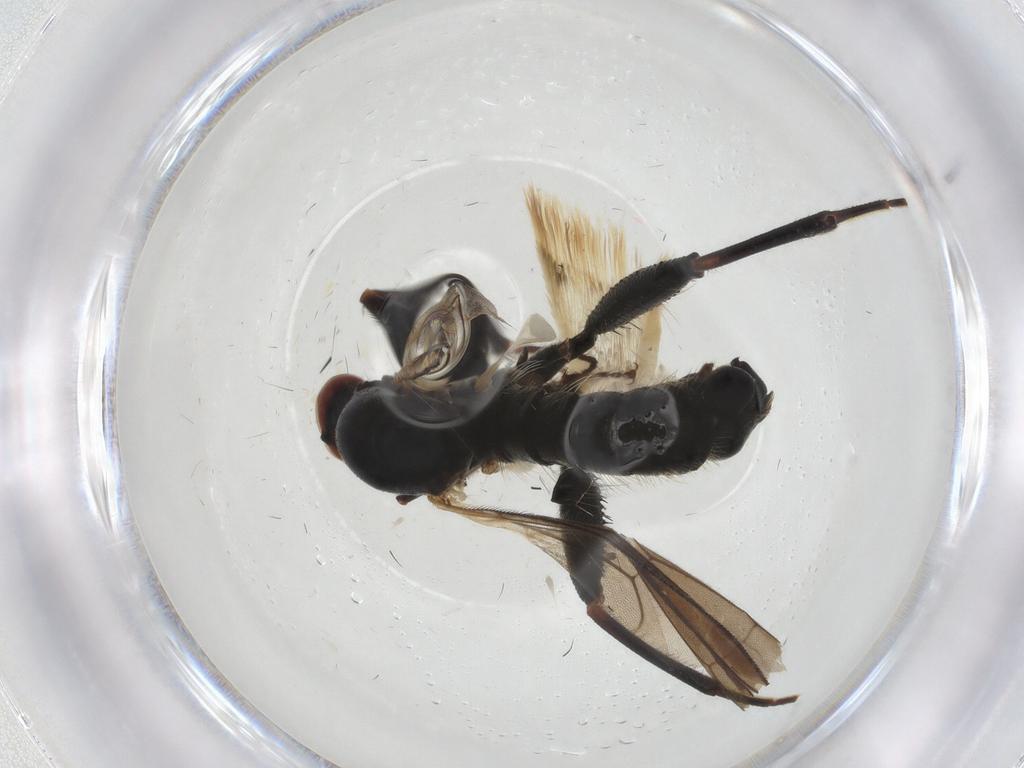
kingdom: Animalia
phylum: Arthropoda
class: Insecta
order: Diptera
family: Hybotidae
